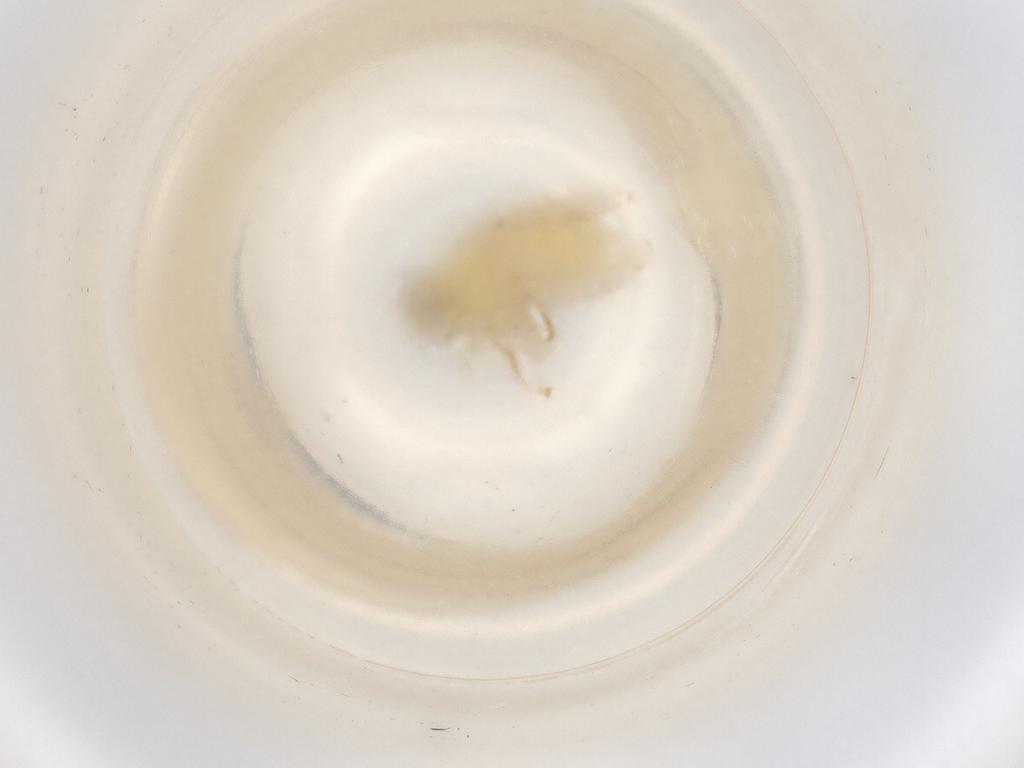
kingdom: Animalia
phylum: Arthropoda
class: Insecta
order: Diptera
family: Chyromyidae
